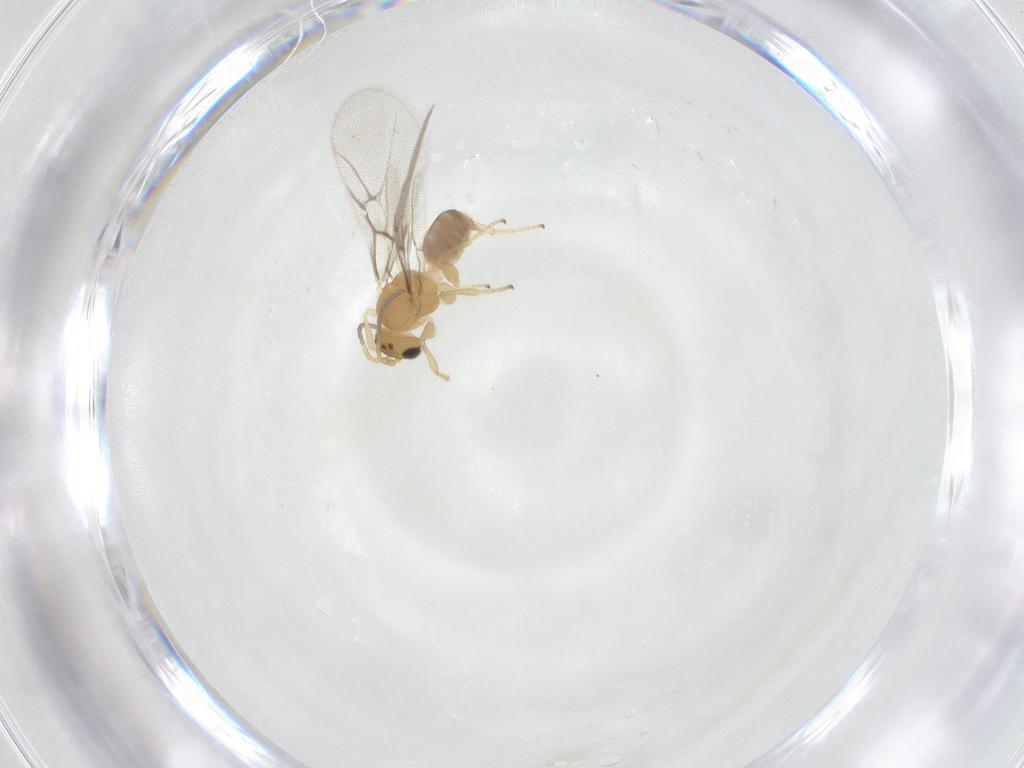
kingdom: Animalia
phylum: Arthropoda
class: Insecta
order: Hymenoptera
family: Cynipidae
